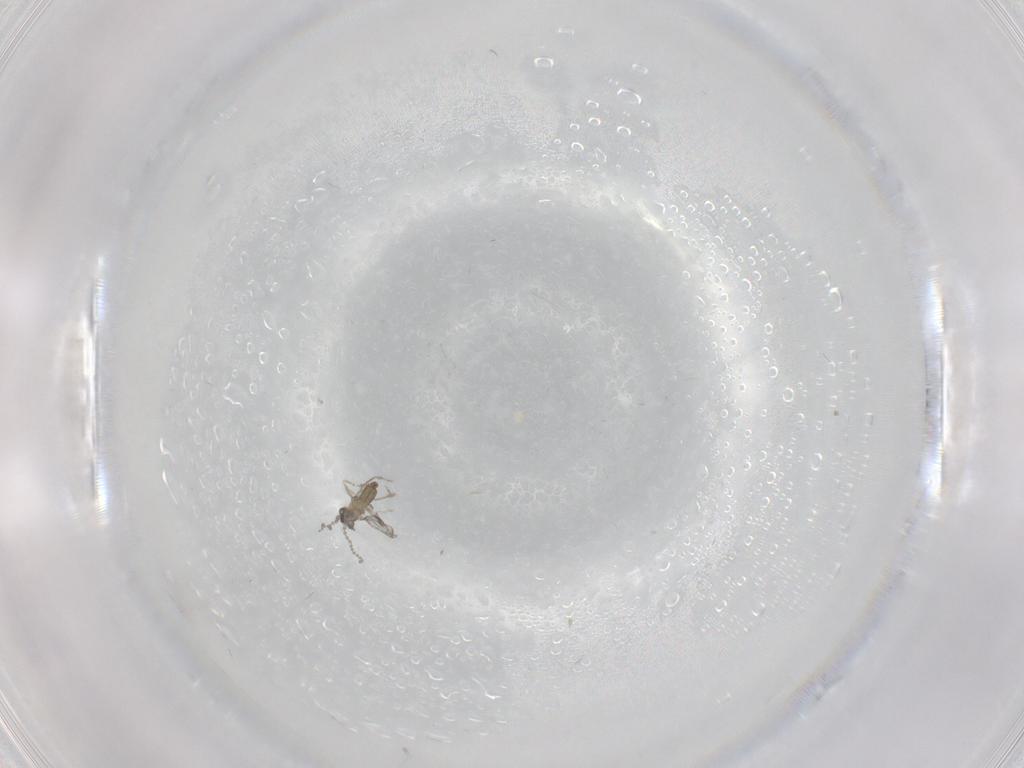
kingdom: Animalia
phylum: Arthropoda
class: Insecta
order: Diptera
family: Cecidomyiidae
